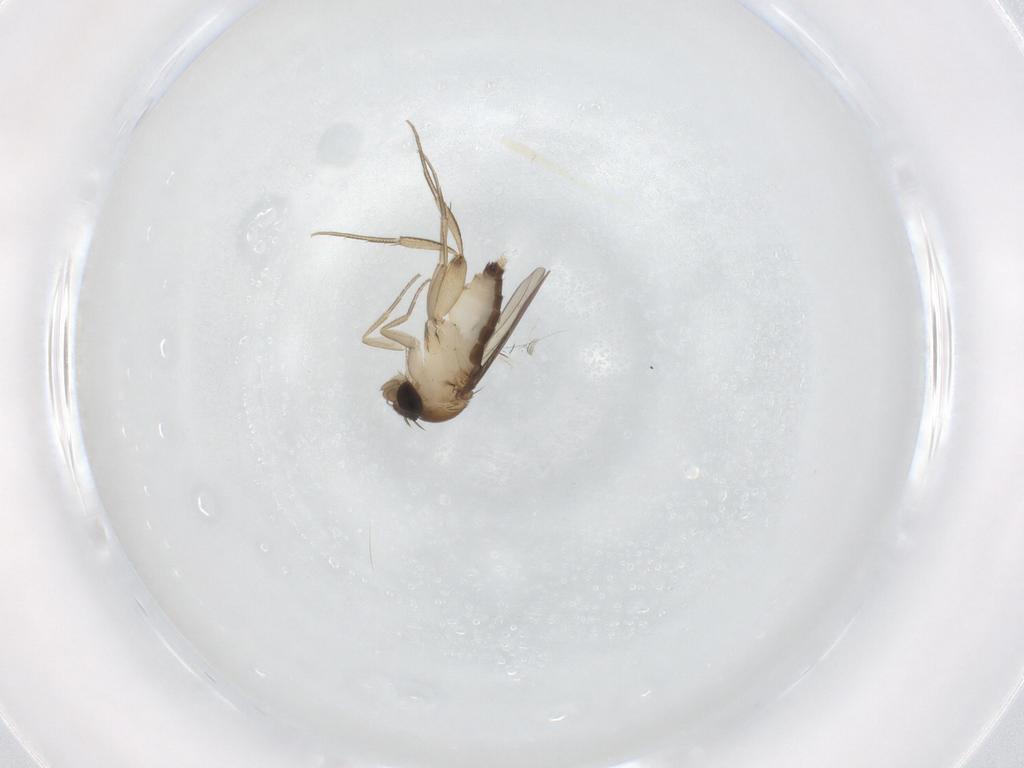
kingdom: Animalia
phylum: Arthropoda
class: Insecta
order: Diptera
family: Phoridae
